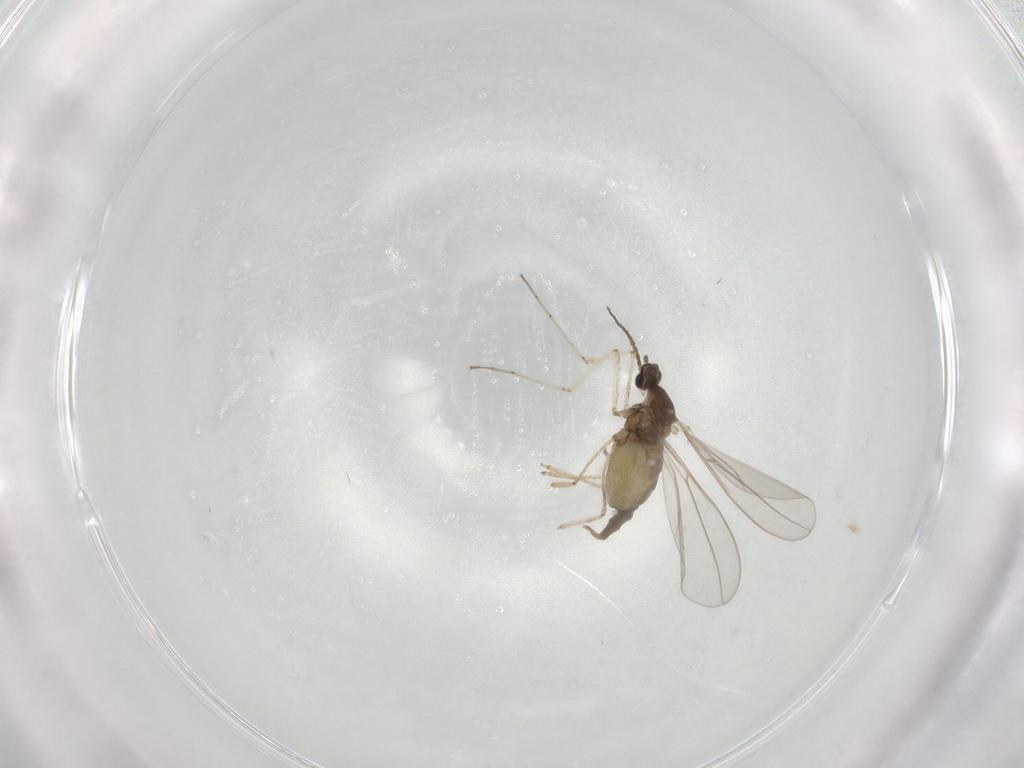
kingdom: Animalia
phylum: Arthropoda
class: Insecta
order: Diptera
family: Cecidomyiidae
